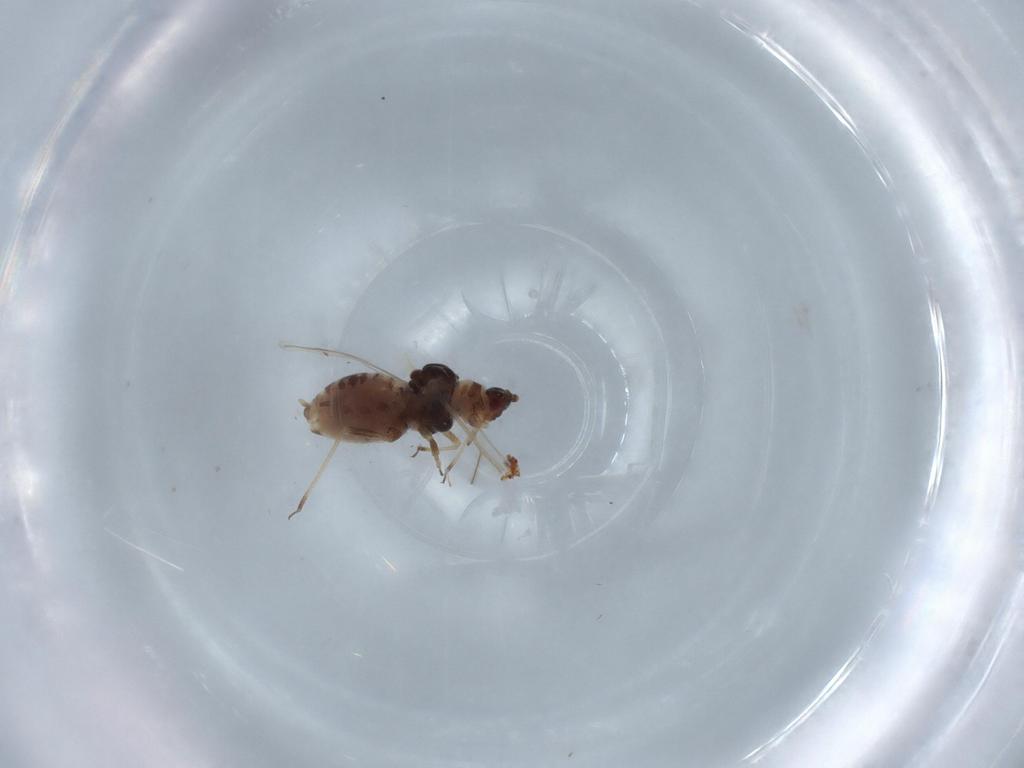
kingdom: Animalia
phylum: Arthropoda
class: Insecta
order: Hemiptera
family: Aphididae
